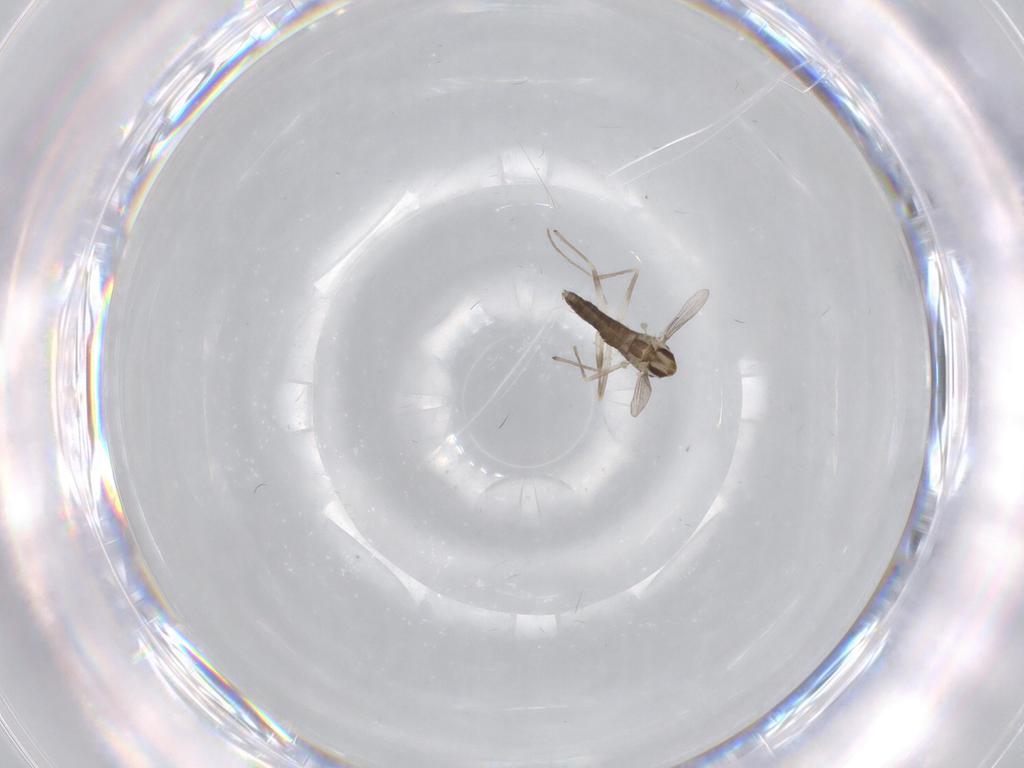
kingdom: Animalia
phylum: Arthropoda
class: Insecta
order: Diptera
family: Chironomidae
